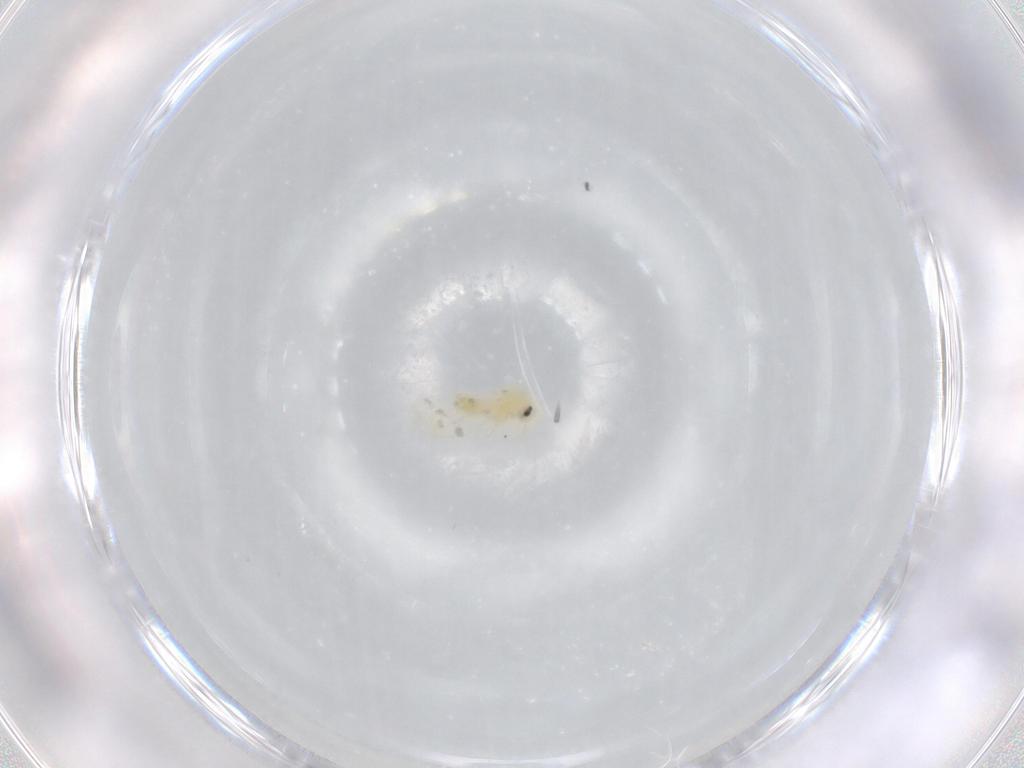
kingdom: Animalia
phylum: Arthropoda
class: Insecta
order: Hemiptera
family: Aleyrodidae
